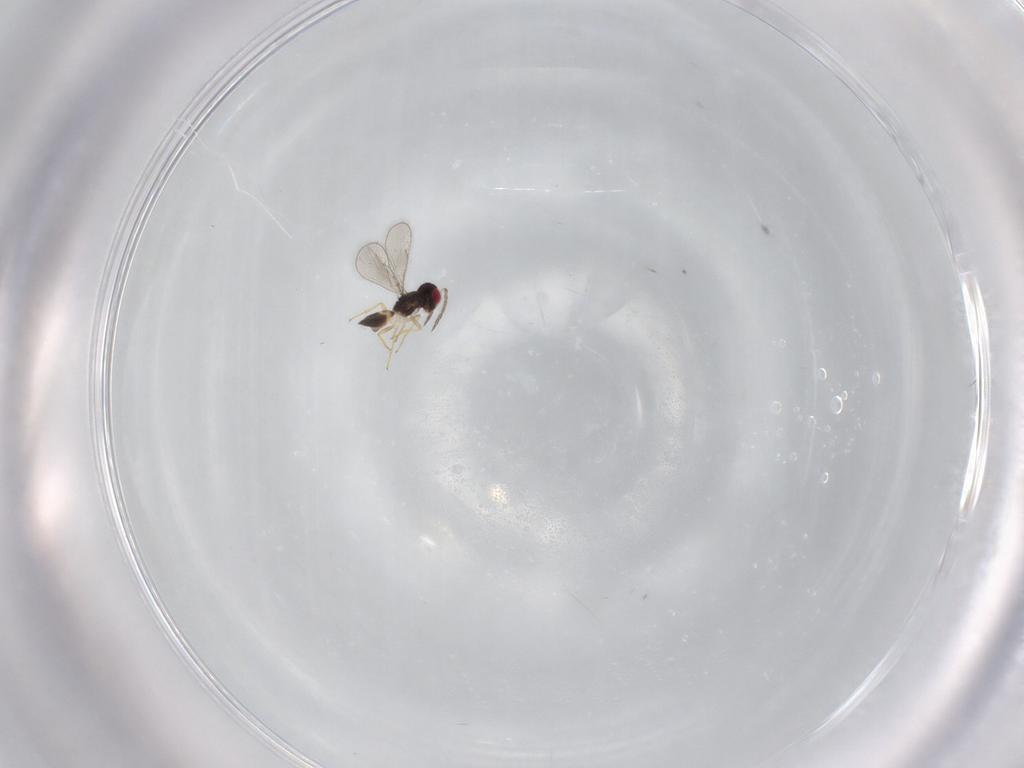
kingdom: Animalia
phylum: Arthropoda
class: Insecta
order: Hymenoptera
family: Eulophidae
